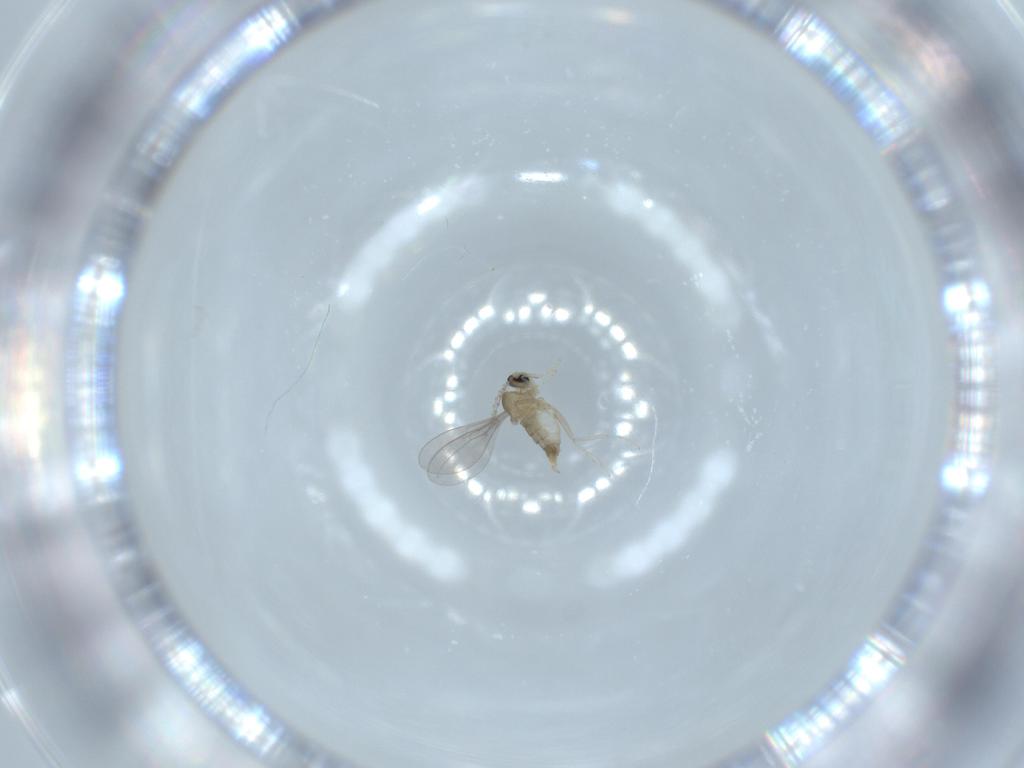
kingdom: Animalia
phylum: Arthropoda
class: Insecta
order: Diptera
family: Cecidomyiidae
